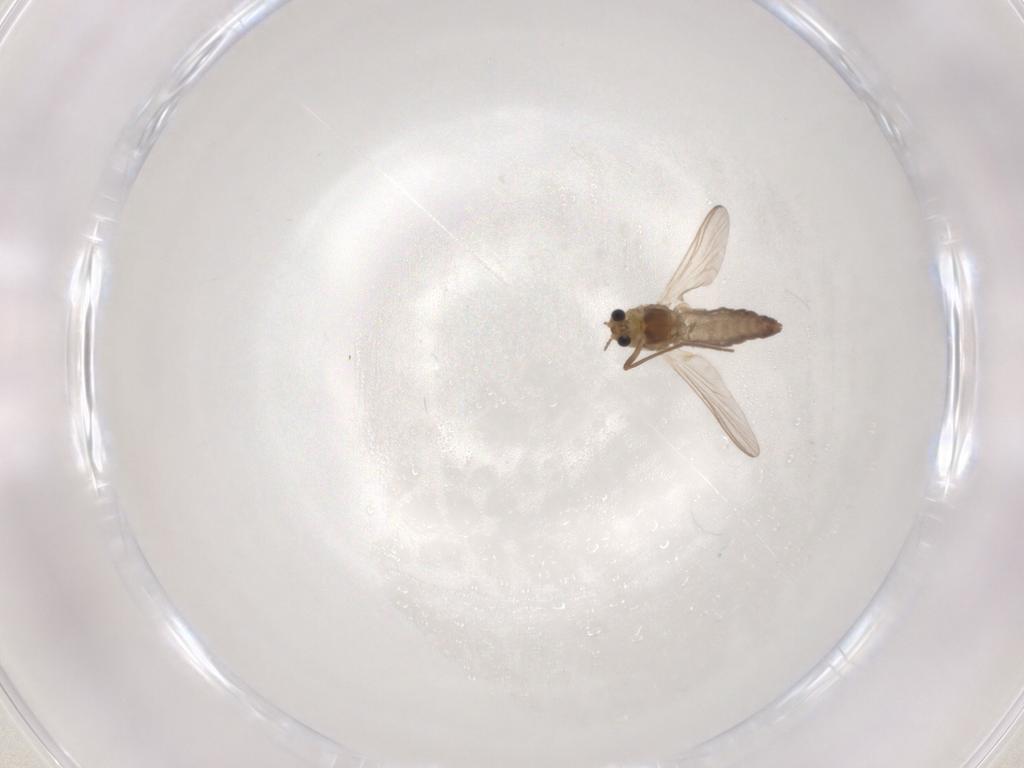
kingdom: Animalia
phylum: Arthropoda
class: Insecta
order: Diptera
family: Chironomidae
